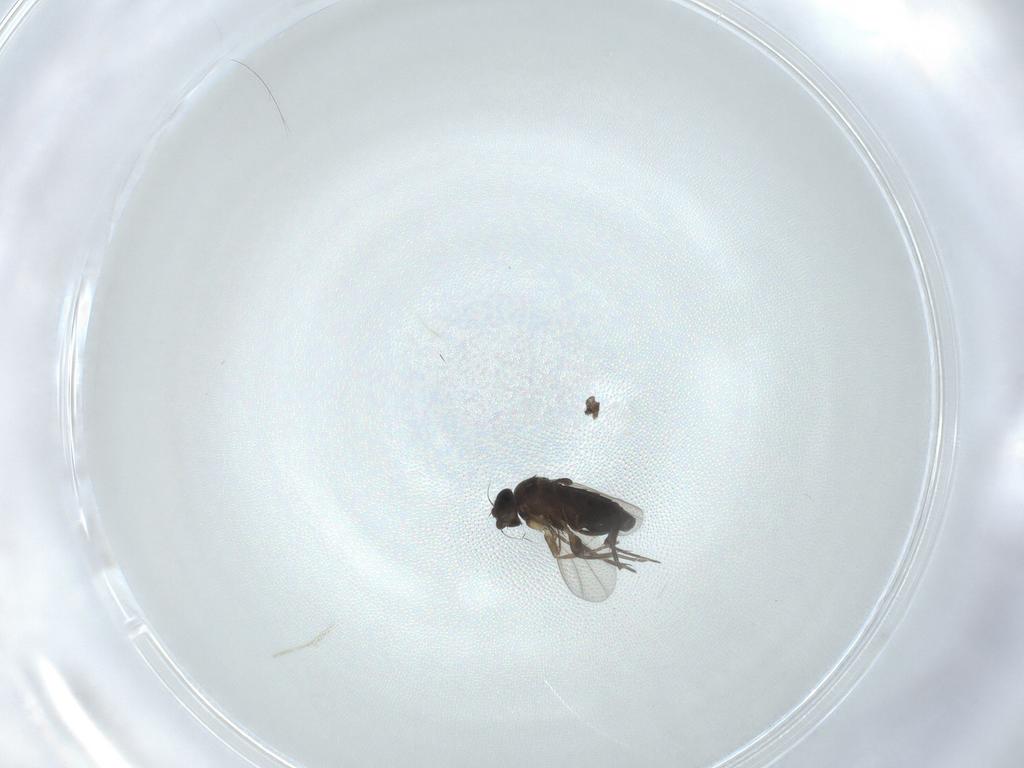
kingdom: Animalia
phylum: Arthropoda
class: Insecta
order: Diptera
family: Phoridae
